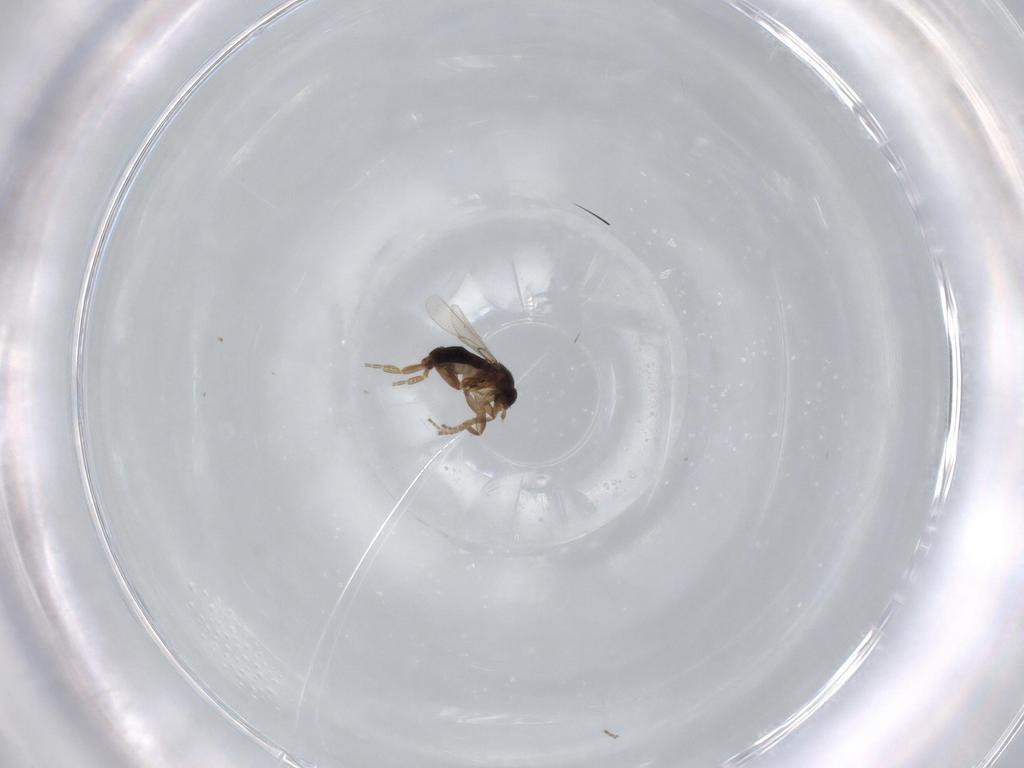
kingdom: Animalia
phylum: Arthropoda
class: Insecta
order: Diptera
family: Phoridae
